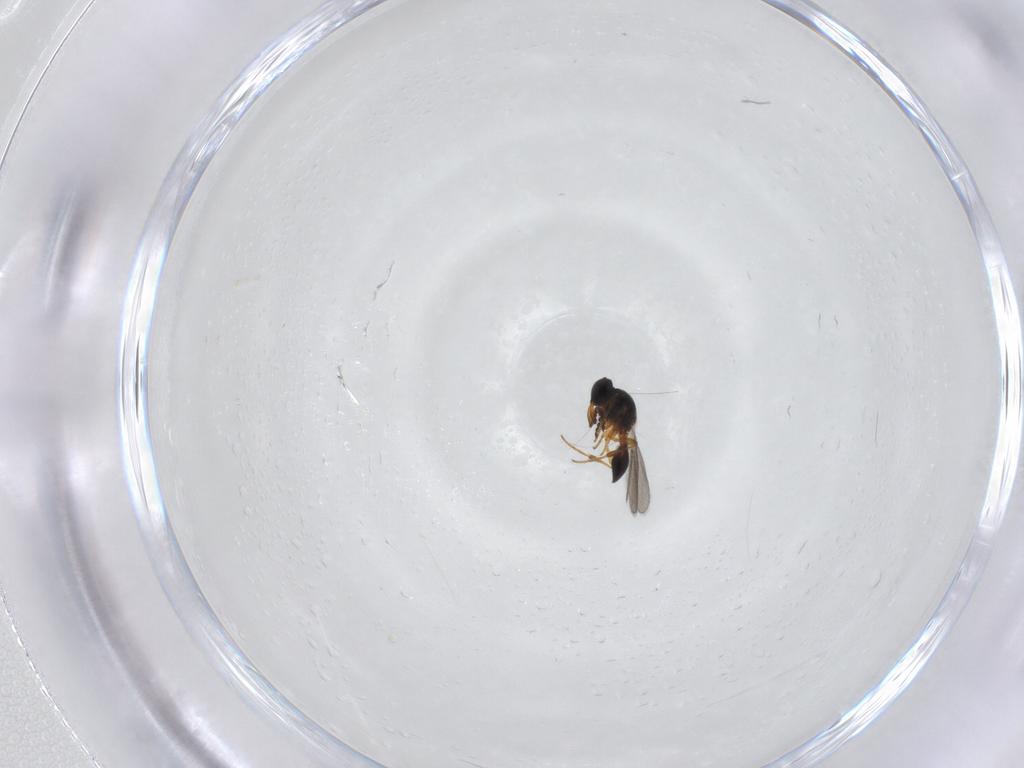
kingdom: Animalia
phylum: Arthropoda
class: Insecta
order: Hymenoptera
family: Platygastridae
